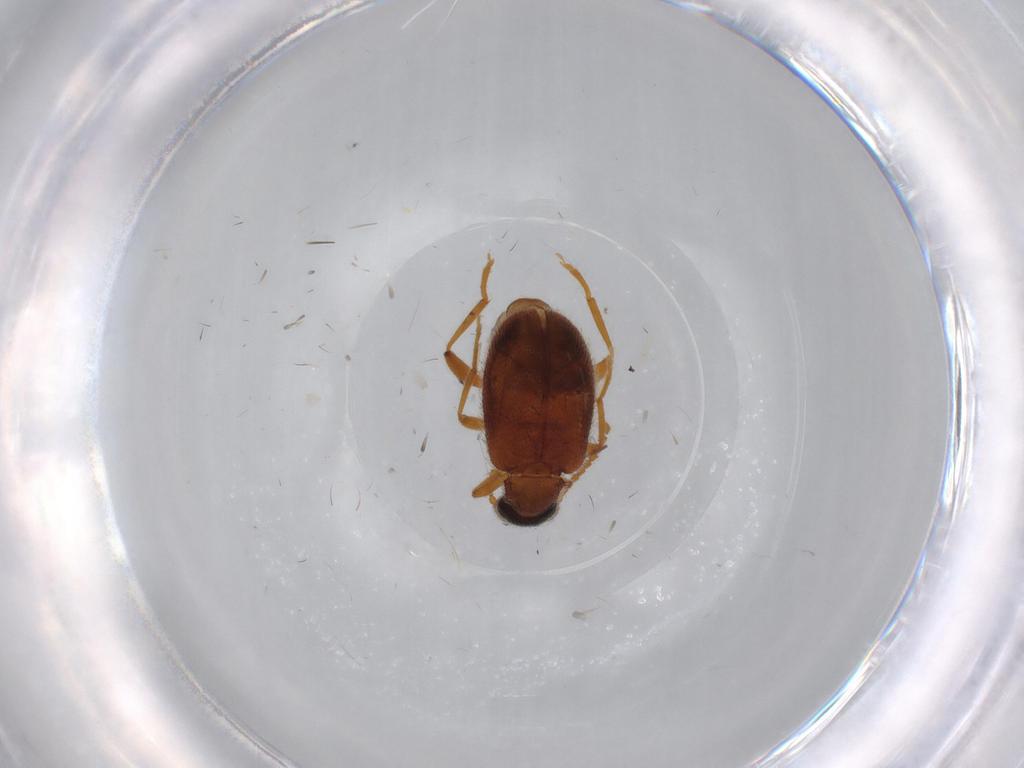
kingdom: Animalia
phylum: Arthropoda
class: Insecta
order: Coleoptera
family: Aderidae
